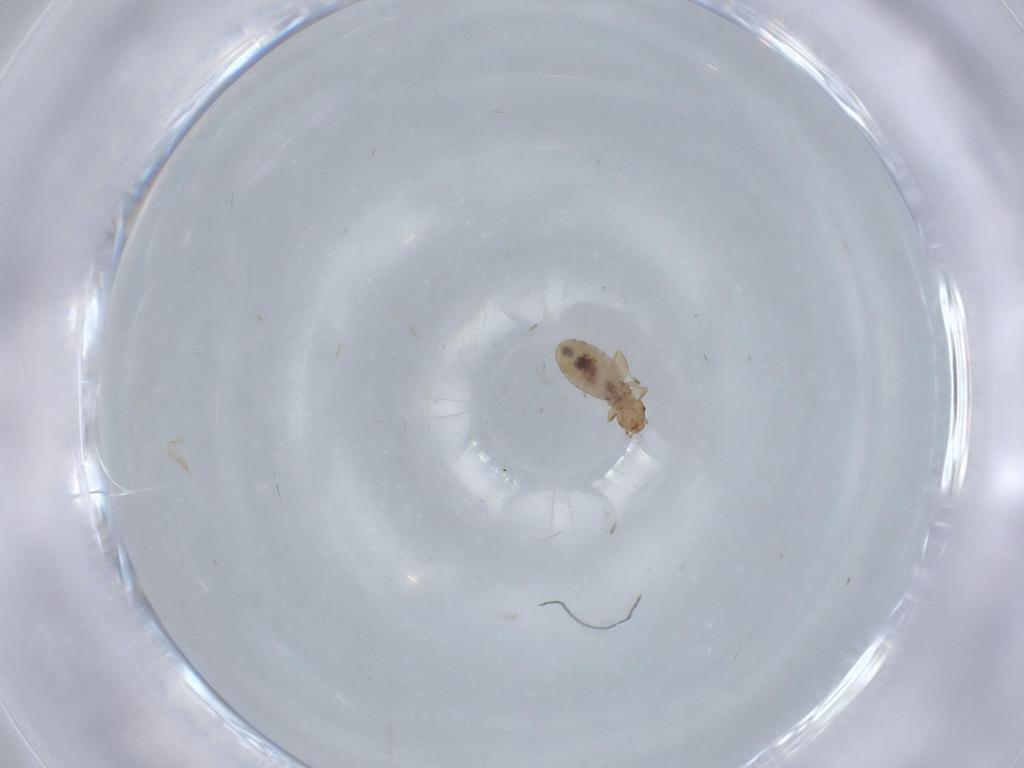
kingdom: Animalia
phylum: Arthropoda
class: Insecta
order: Psocodea
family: Liposcelididae
